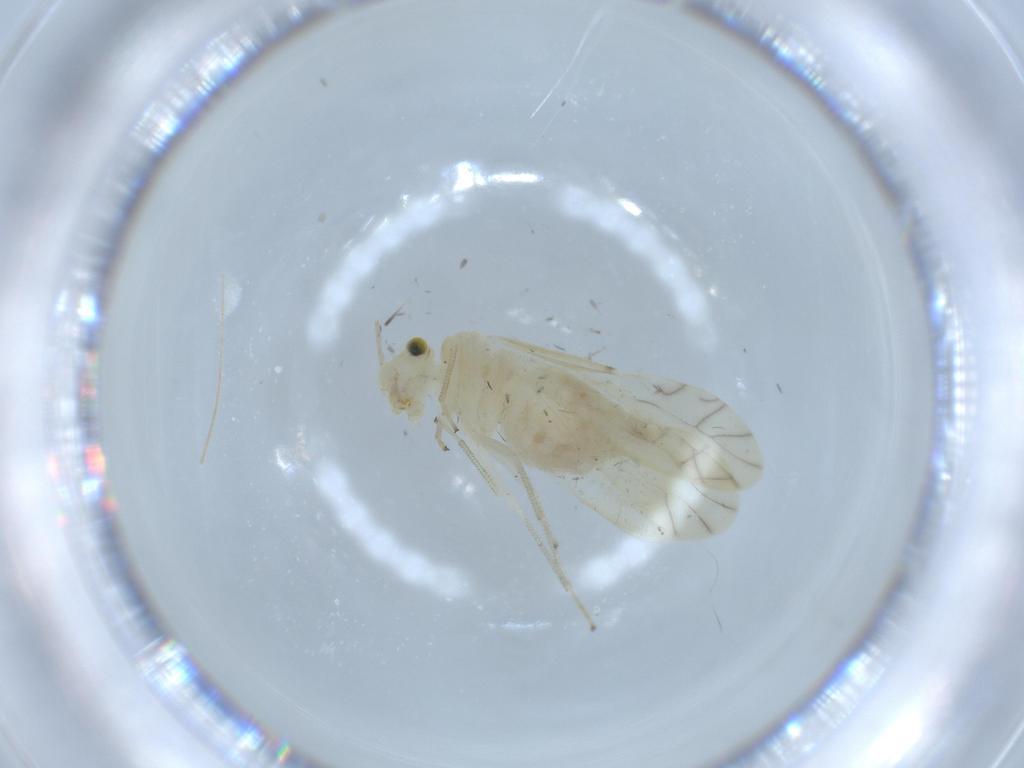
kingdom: Animalia
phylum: Arthropoda
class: Insecta
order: Psocodea
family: Caeciliusidae
